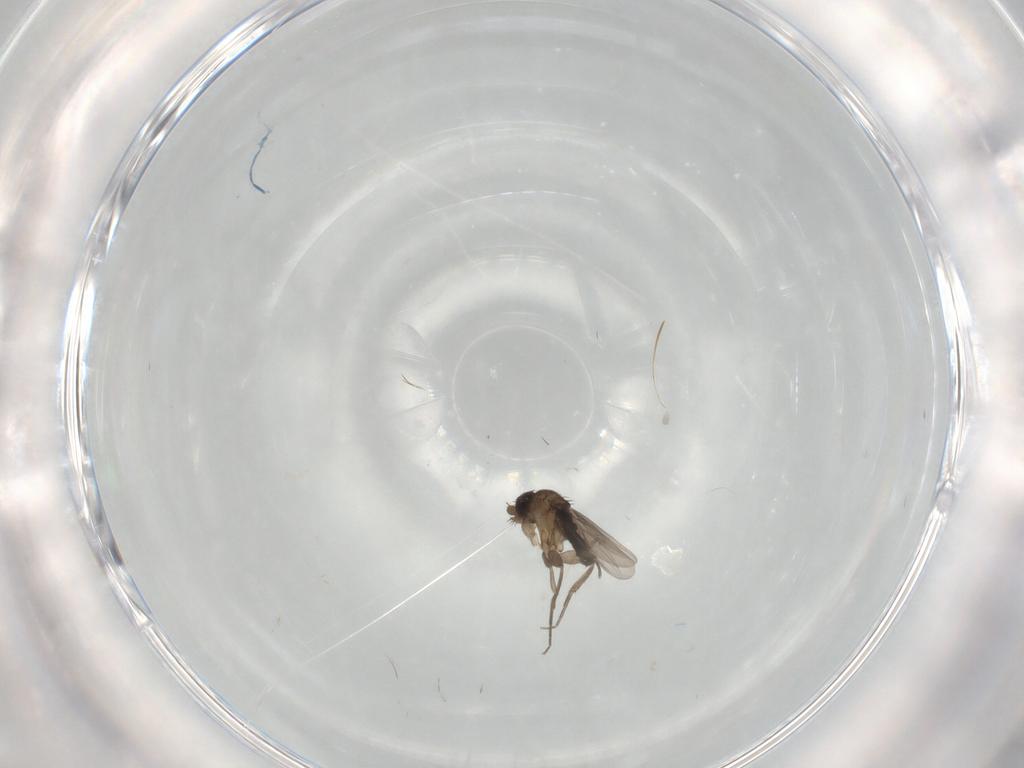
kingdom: Animalia
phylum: Arthropoda
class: Insecta
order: Diptera
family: Phoridae
